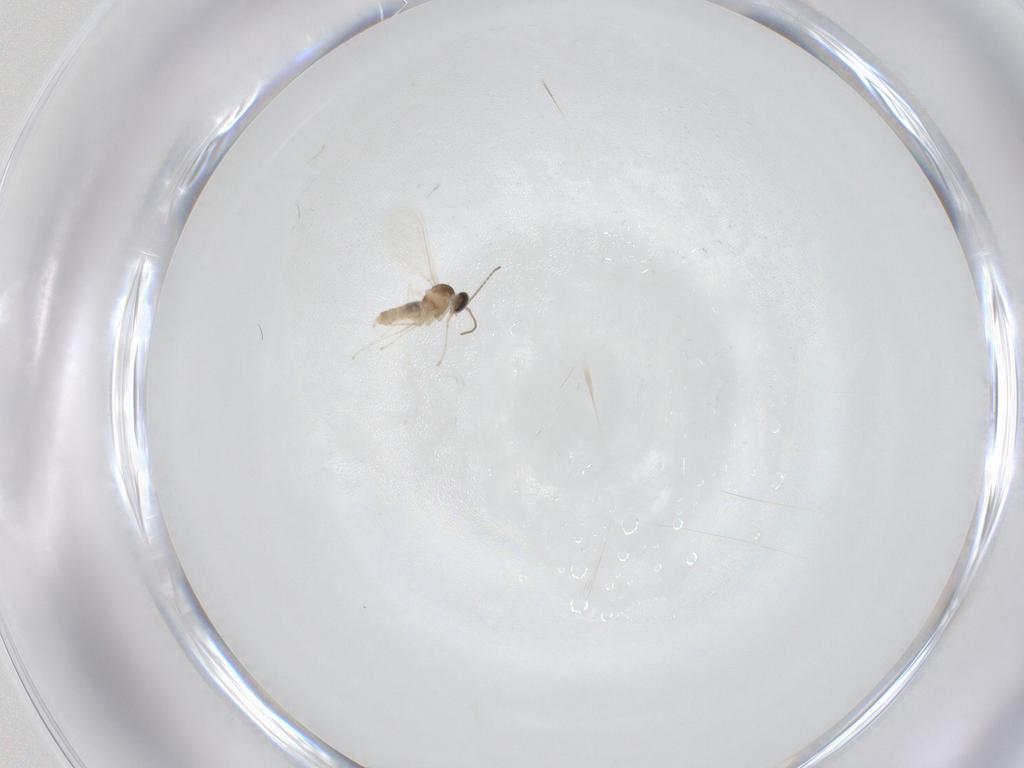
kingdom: Animalia
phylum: Arthropoda
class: Insecta
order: Diptera
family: Cecidomyiidae
